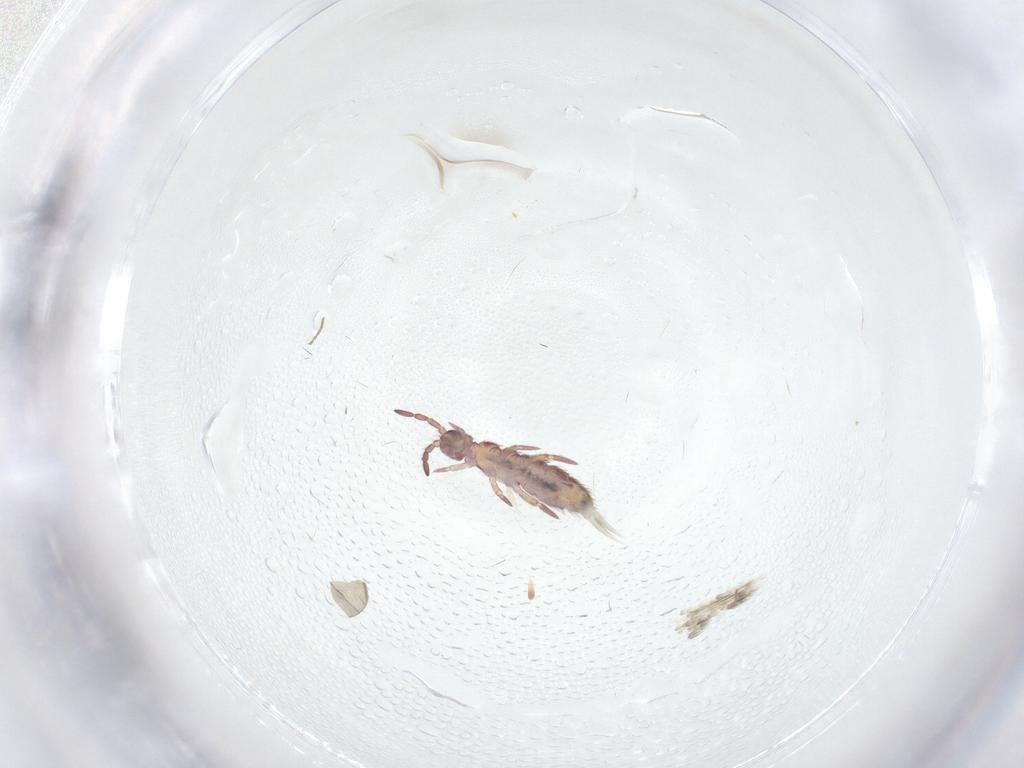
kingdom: Animalia
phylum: Arthropoda
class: Collembola
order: Entomobryomorpha
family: Isotomidae
